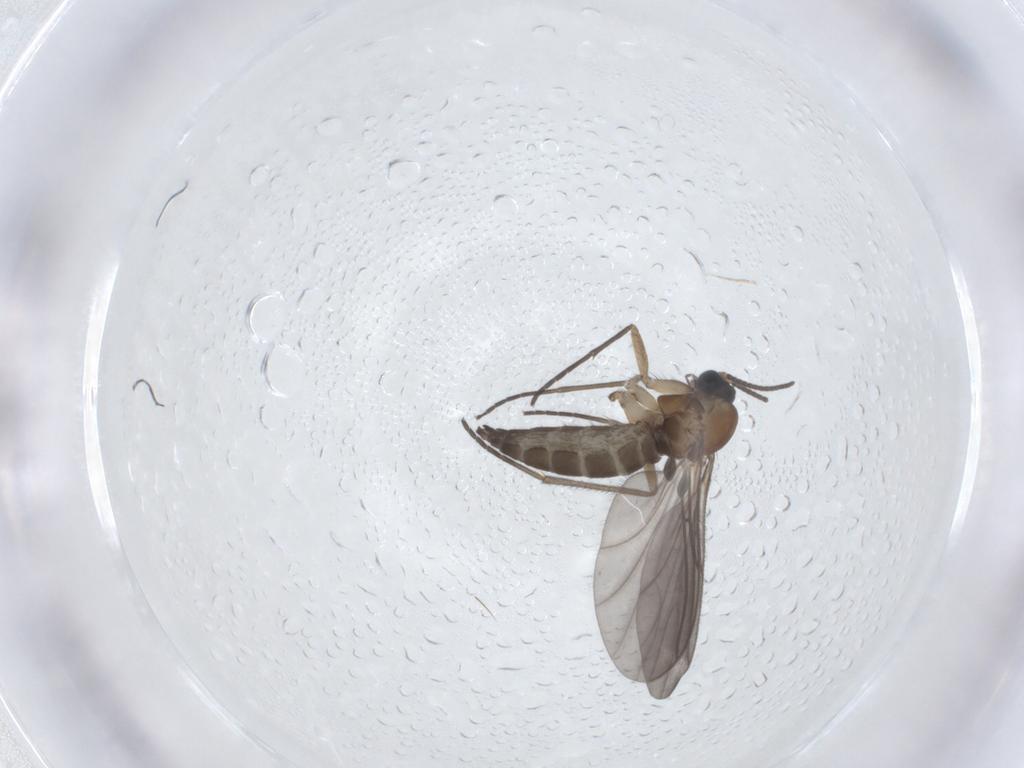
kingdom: Animalia
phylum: Arthropoda
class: Insecta
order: Diptera
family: Sciaridae
